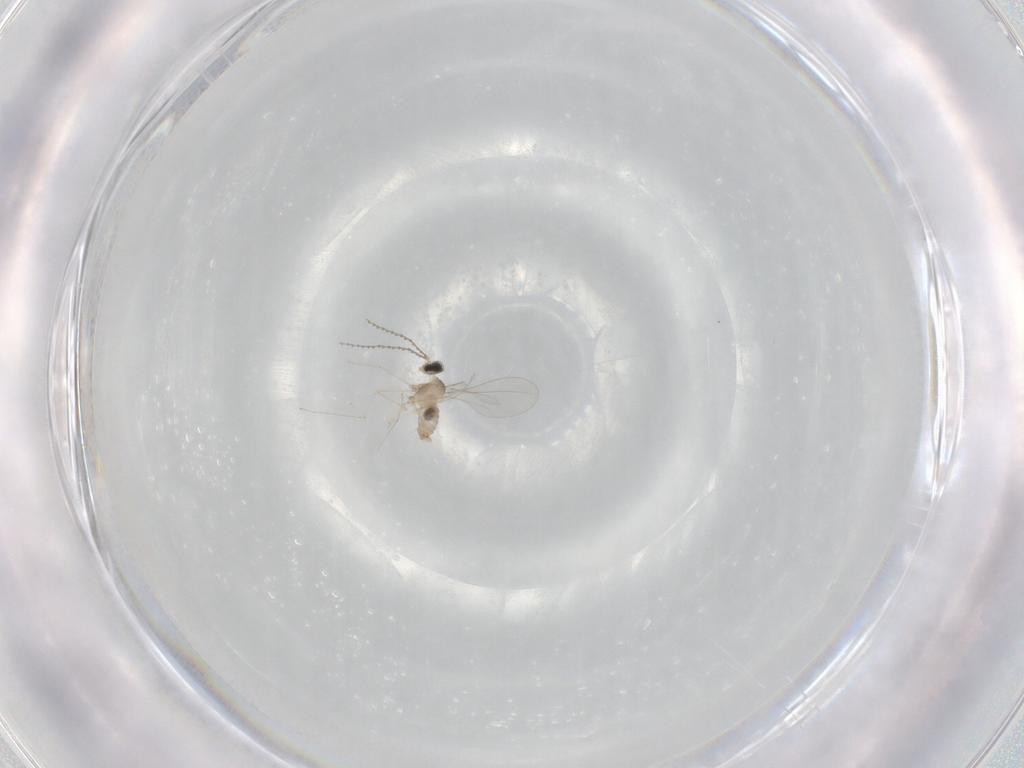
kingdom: Animalia
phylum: Arthropoda
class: Insecta
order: Diptera
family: Cecidomyiidae
